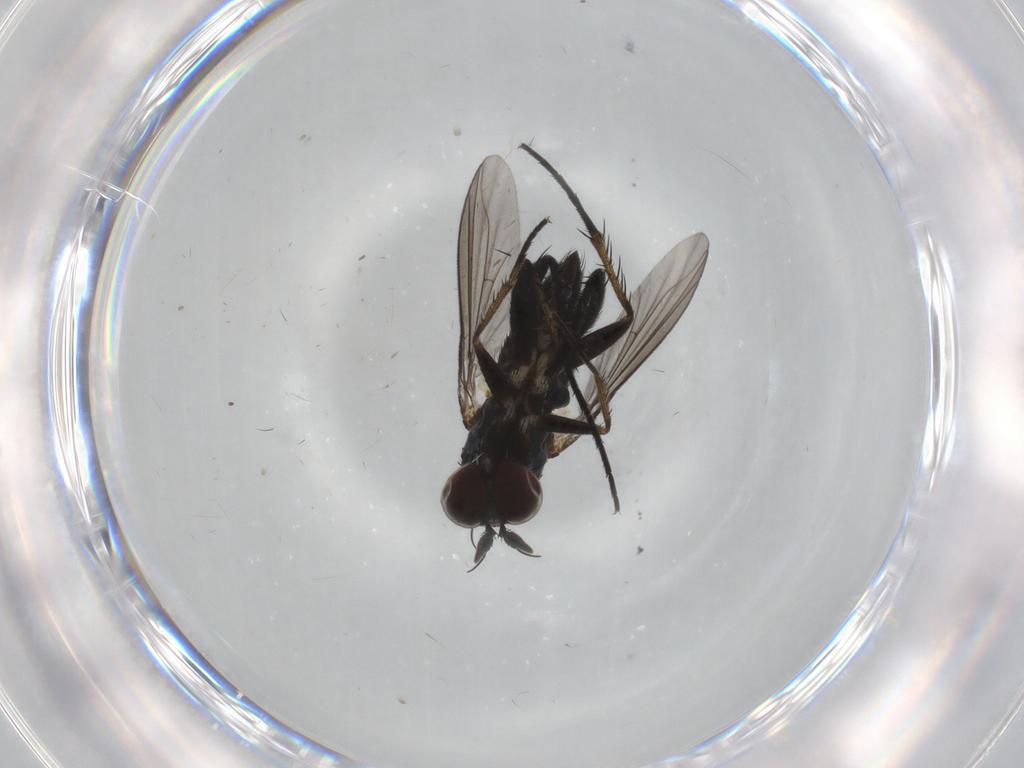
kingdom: Animalia
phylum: Arthropoda
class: Insecta
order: Diptera
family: Dolichopodidae
